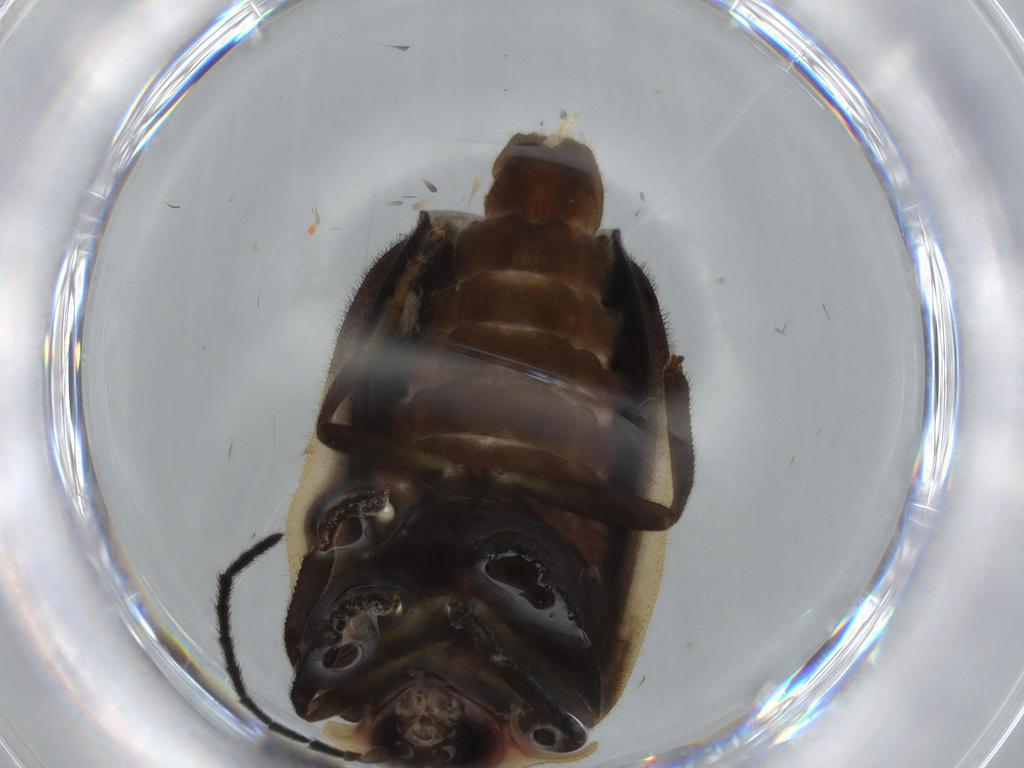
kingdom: Animalia
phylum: Arthropoda
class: Insecta
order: Coleoptera
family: Lampyridae
